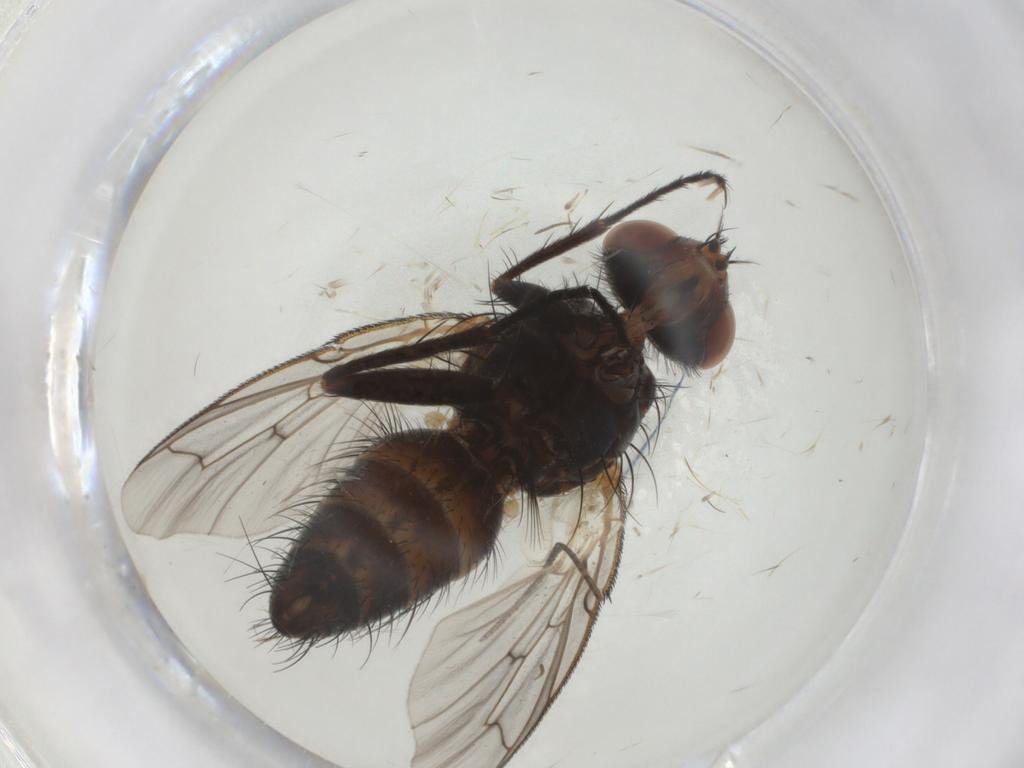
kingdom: Animalia
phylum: Arthropoda
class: Insecta
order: Diptera
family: Tachinidae
